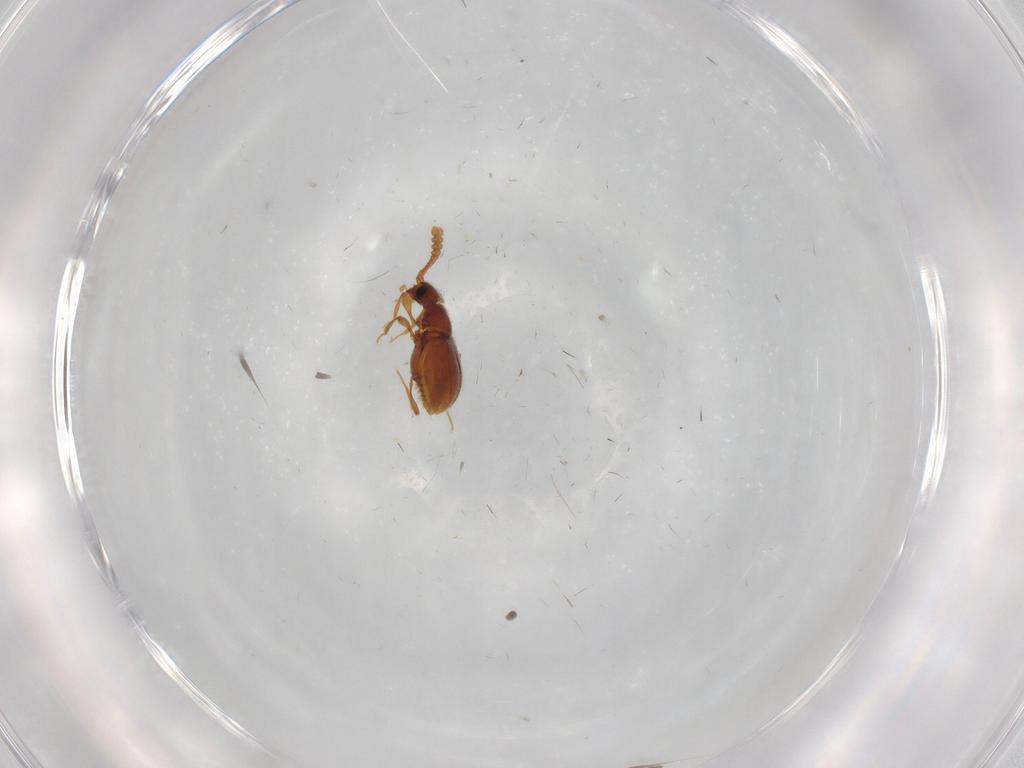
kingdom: Animalia
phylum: Arthropoda
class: Insecta
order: Coleoptera
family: Staphylinidae
